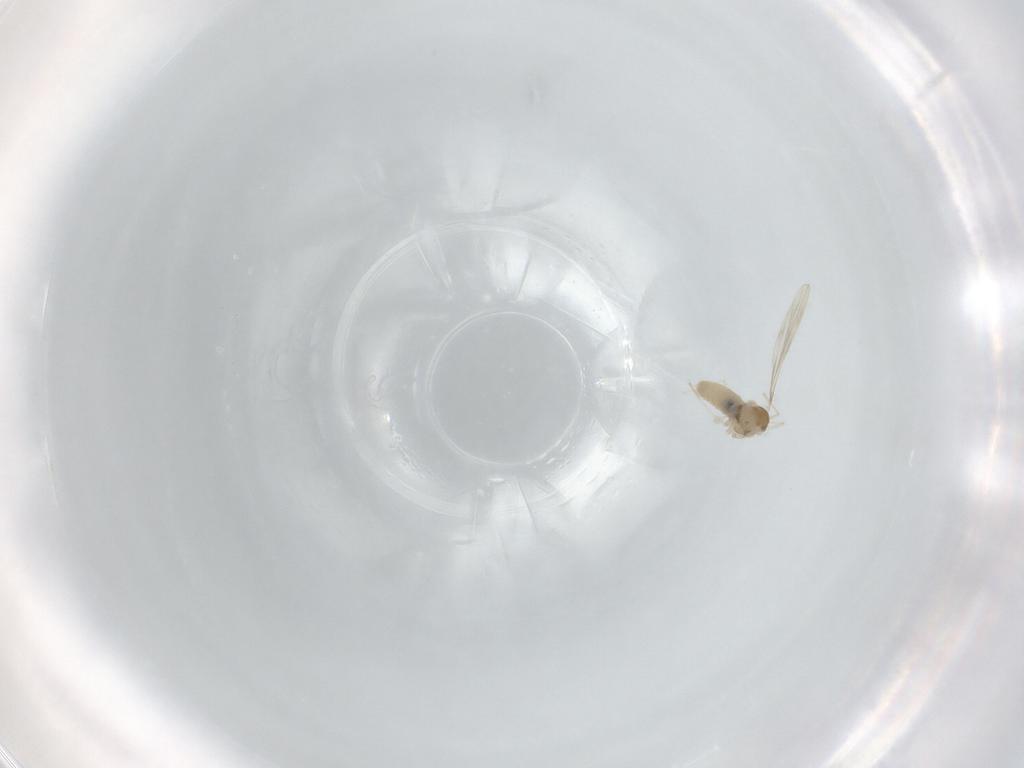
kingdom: Animalia
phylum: Arthropoda
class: Insecta
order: Diptera
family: Cecidomyiidae
